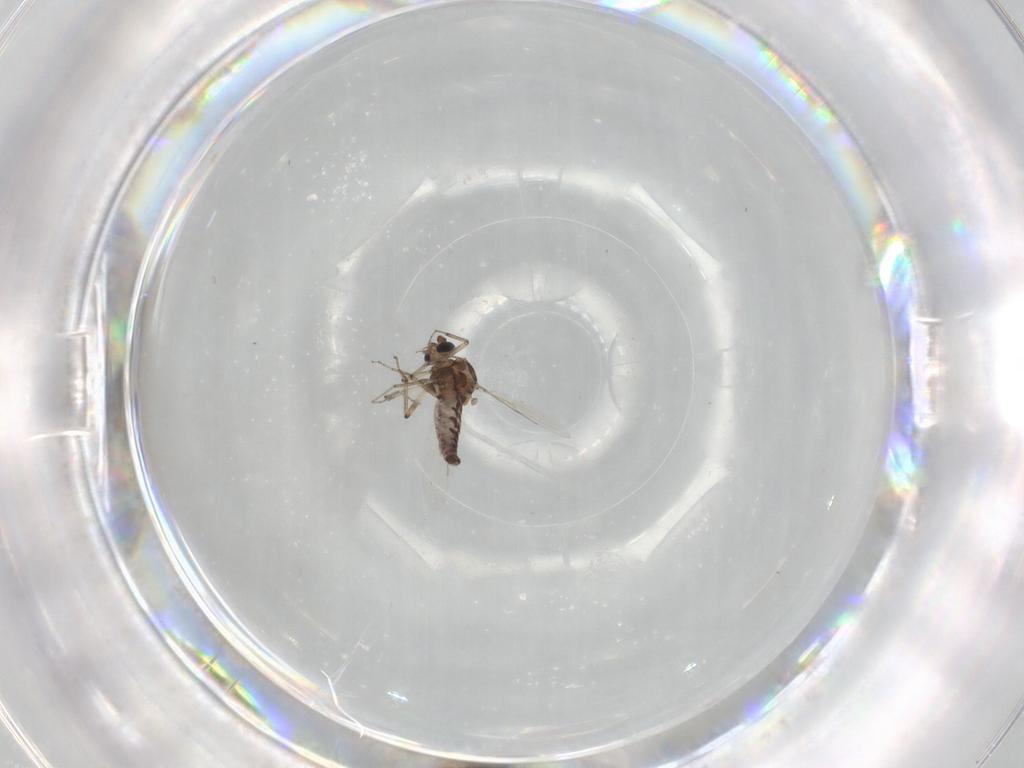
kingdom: Animalia
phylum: Arthropoda
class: Insecta
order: Diptera
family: Ceratopogonidae
